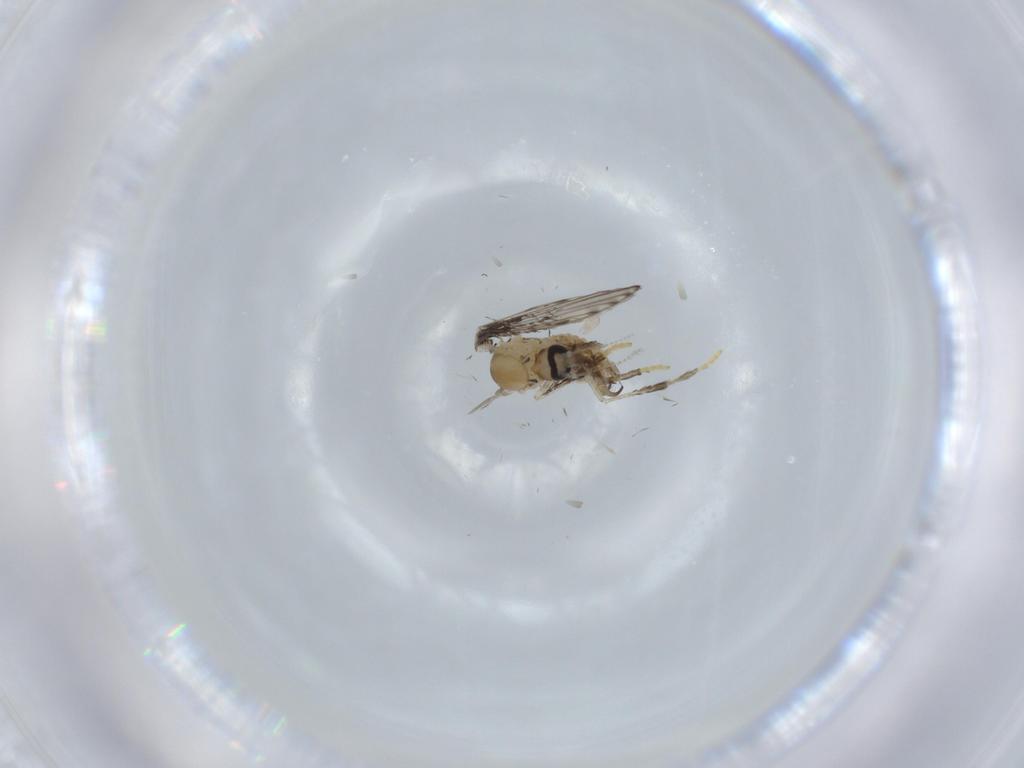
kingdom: Animalia
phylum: Arthropoda
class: Insecta
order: Diptera
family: Psychodidae
